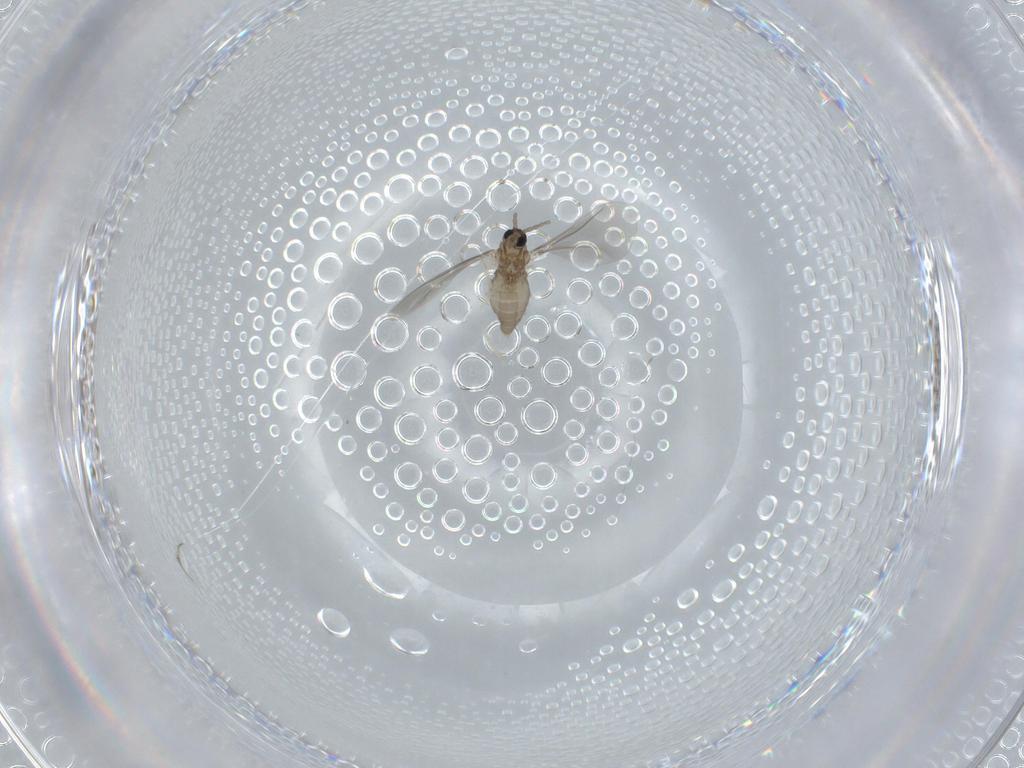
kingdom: Animalia
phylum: Arthropoda
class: Insecta
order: Diptera
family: Cecidomyiidae
